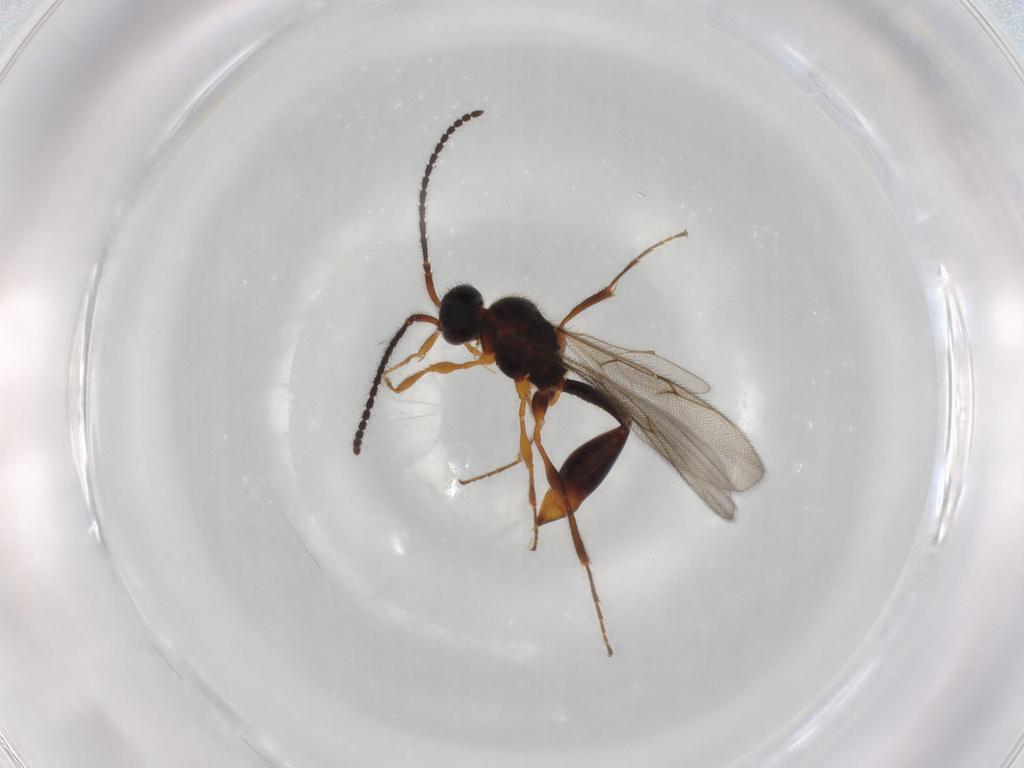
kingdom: Animalia
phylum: Arthropoda
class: Insecta
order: Hymenoptera
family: Diapriidae
